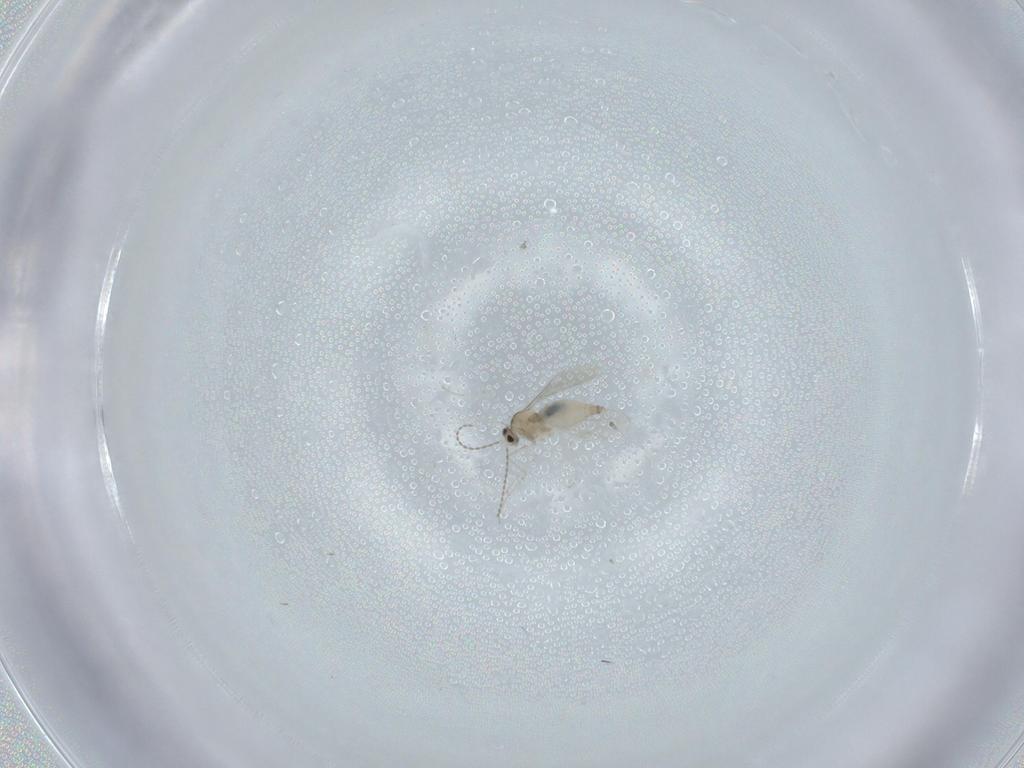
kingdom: Animalia
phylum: Arthropoda
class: Insecta
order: Diptera
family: Cecidomyiidae
